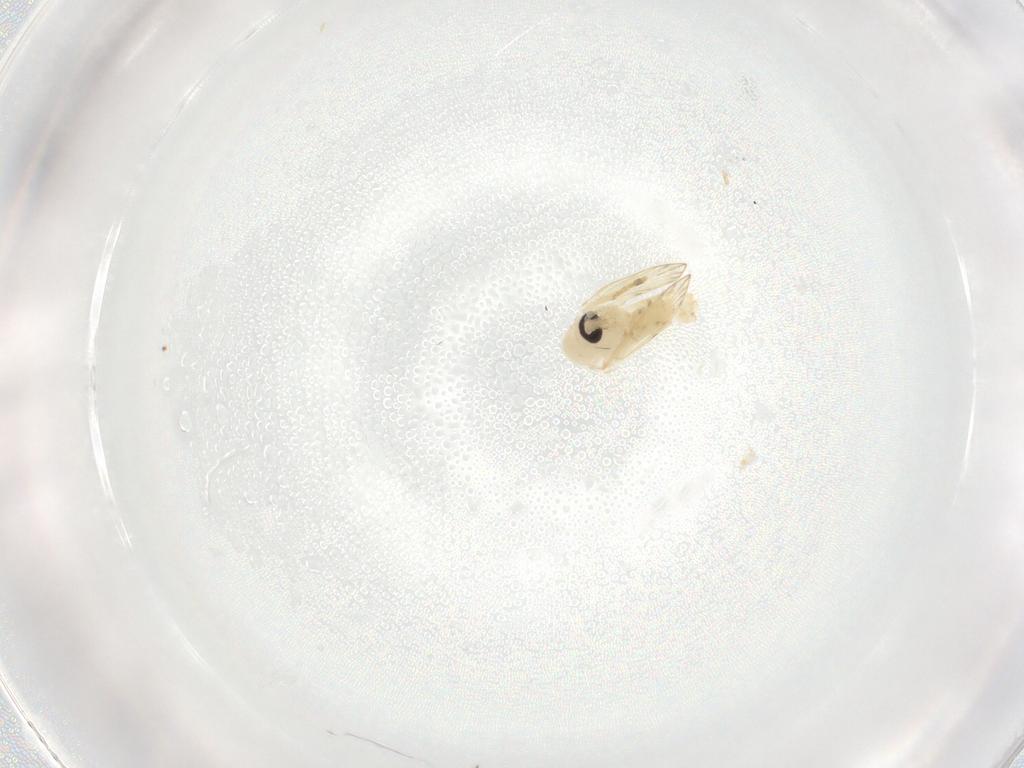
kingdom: Animalia
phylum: Arthropoda
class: Insecta
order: Diptera
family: Psychodidae
